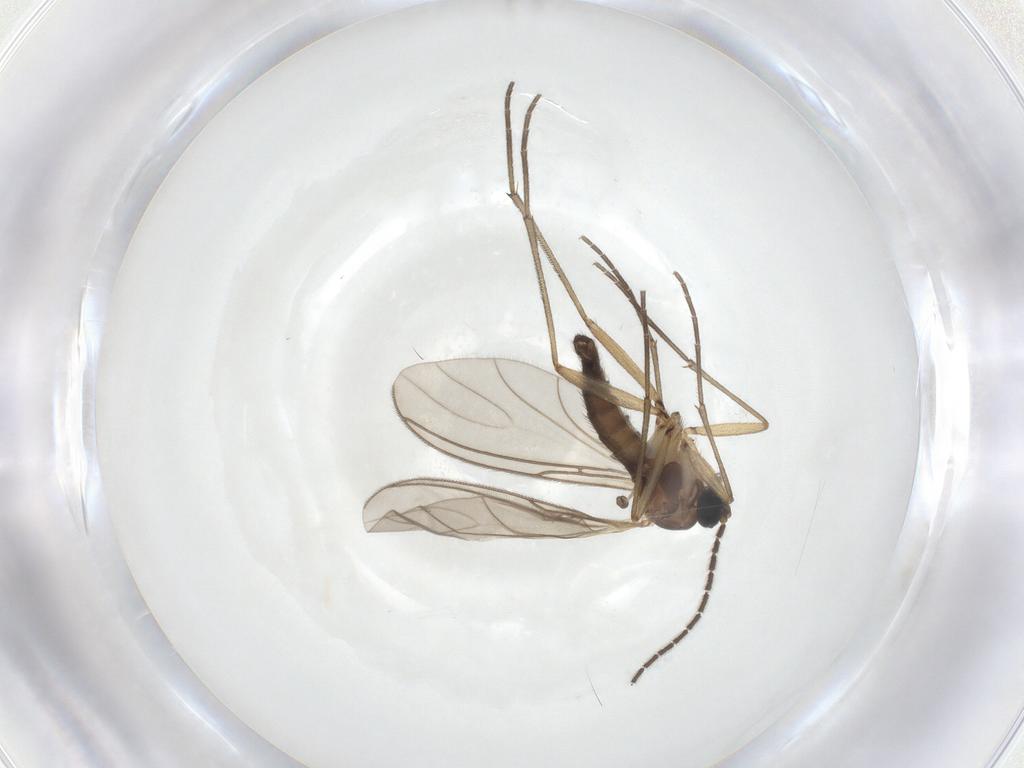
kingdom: Animalia
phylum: Arthropoda
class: Insecta
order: Diptera
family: Sciaridae
